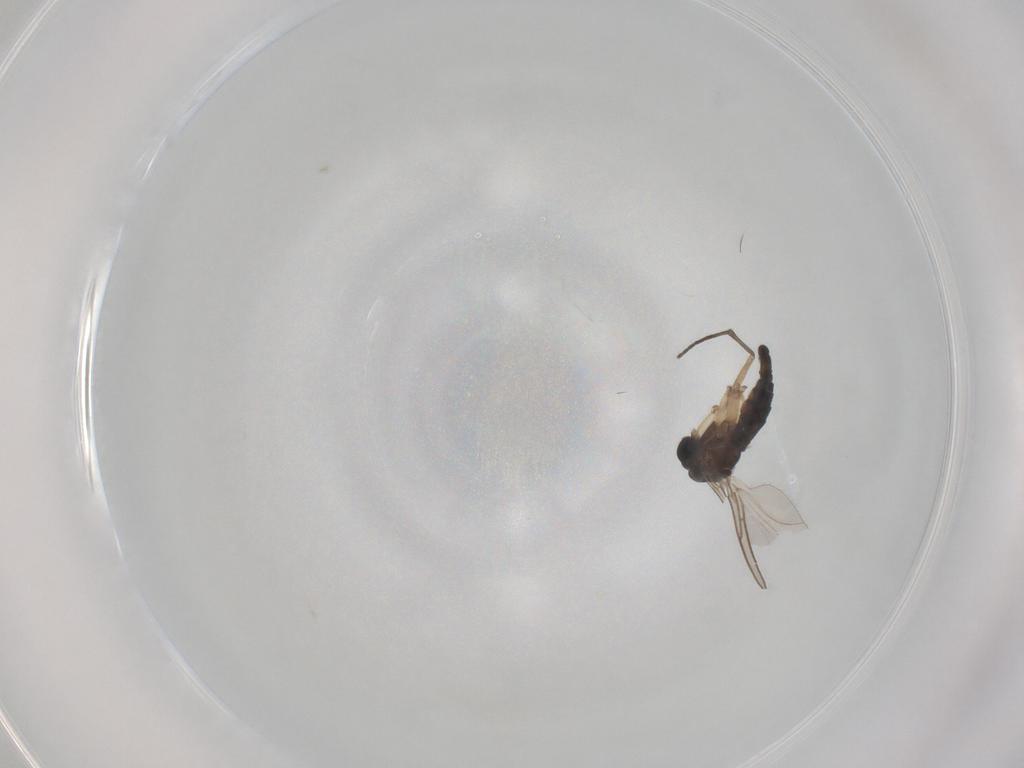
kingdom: Animalia
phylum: Arthropoda
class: Insecta
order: Diptera
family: Sciaridae
